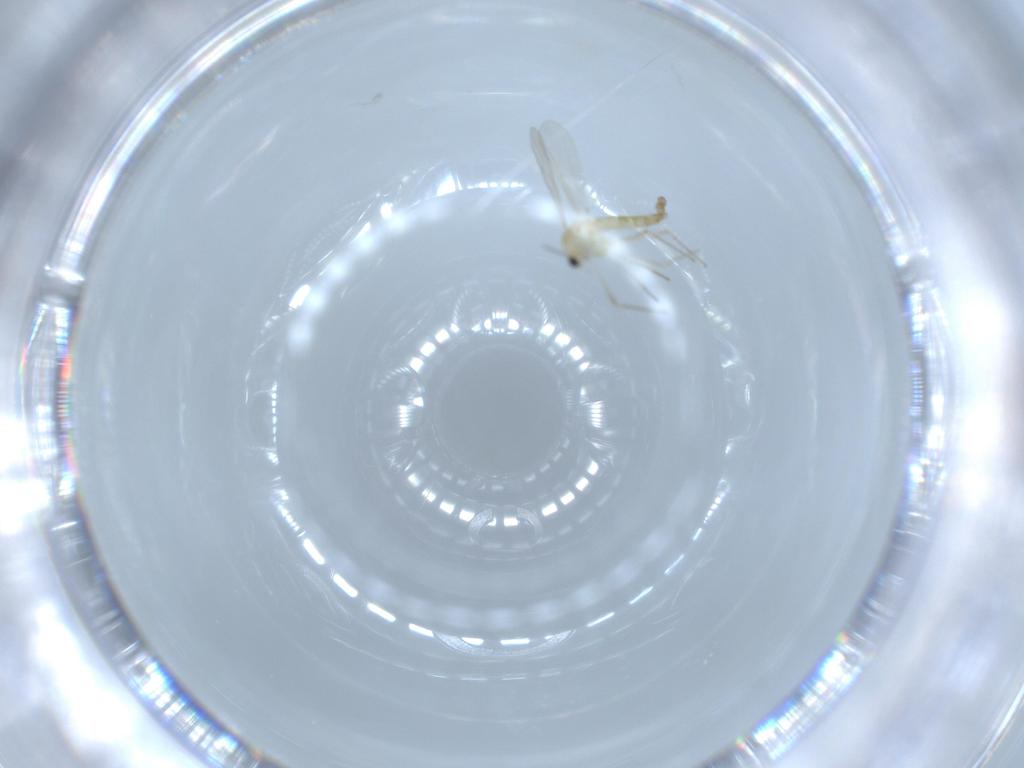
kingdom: Animalia
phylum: Arthropoda
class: Insecta
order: Diptera
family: Chironomidae
